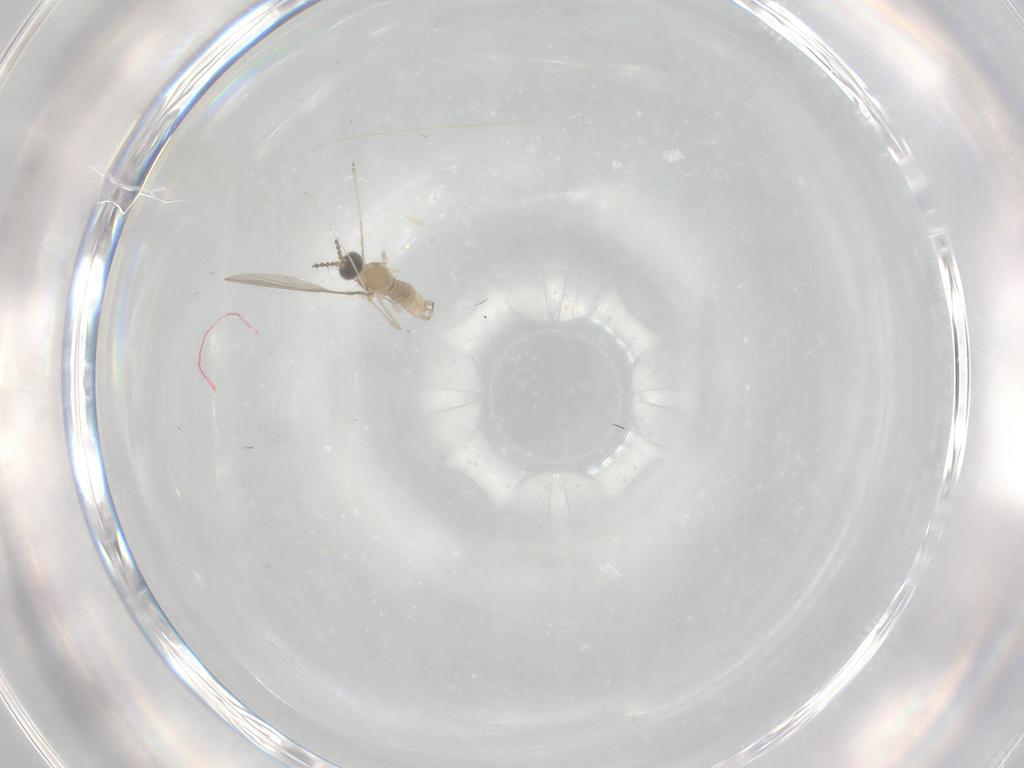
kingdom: Animalia
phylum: Arthropoda
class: Insecta
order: Diptera
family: Cecidomyiidae
